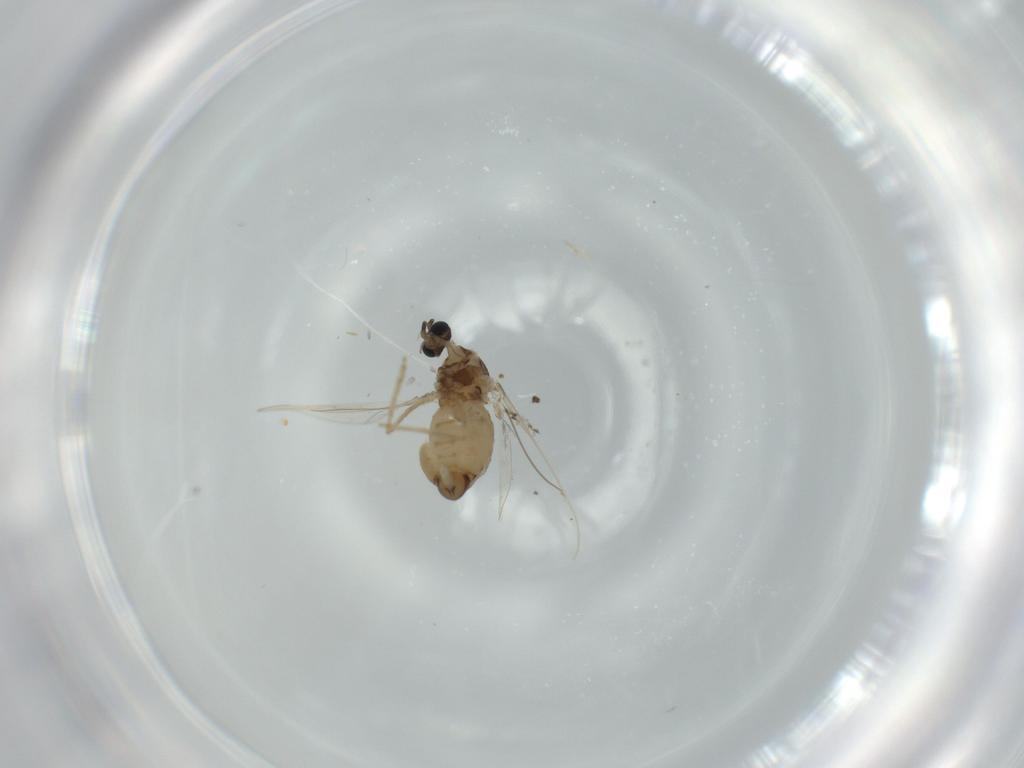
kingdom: Animalia
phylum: Arthropoda
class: Insecta
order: Diptera
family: Cecidomyiidae
